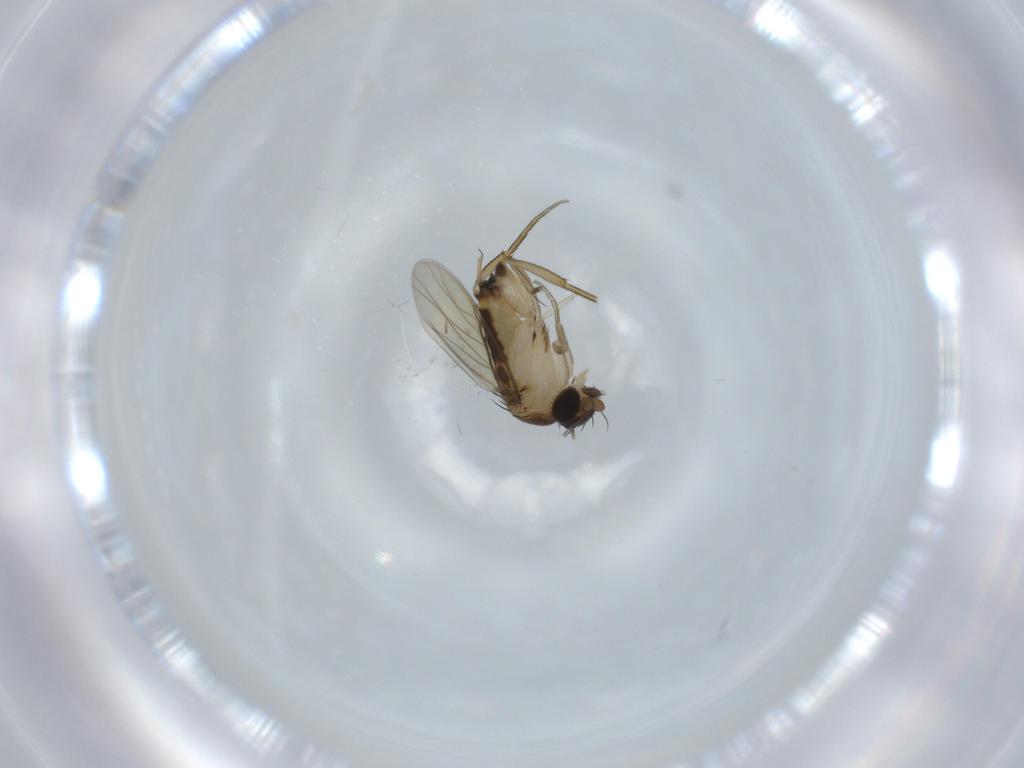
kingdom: Animalia
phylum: Arthropoda
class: Insecta
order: Diptera
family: Phoridae
